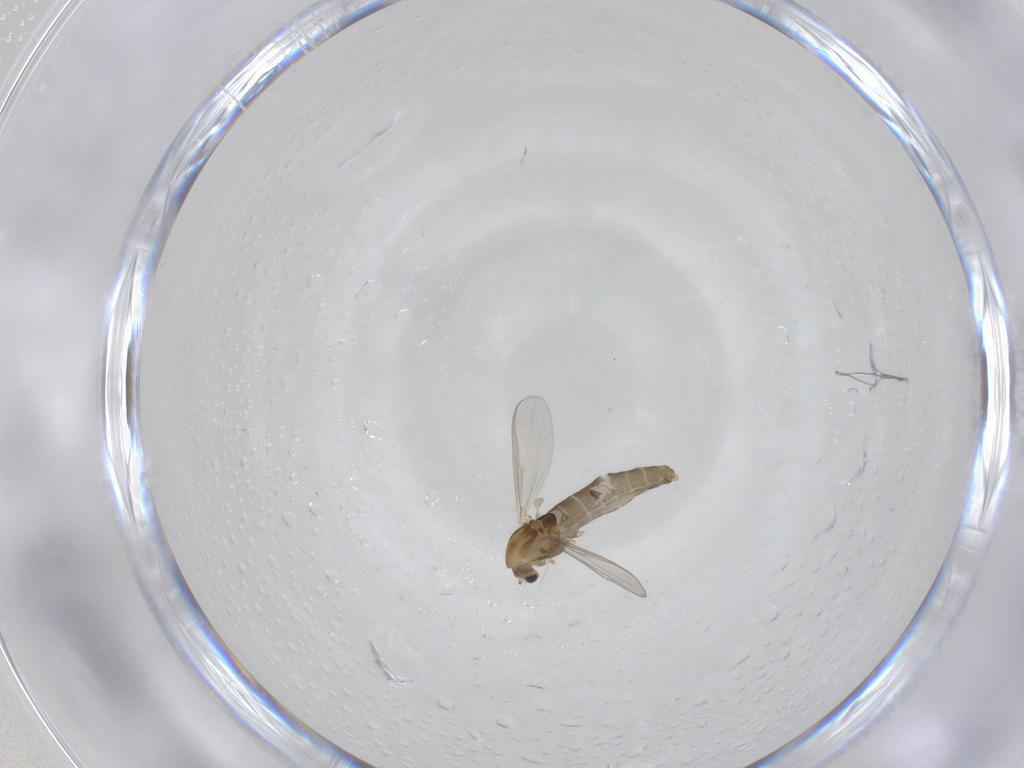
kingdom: Animalia
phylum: Arthropoda
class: Insecta
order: Diptera
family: Chironomidae
